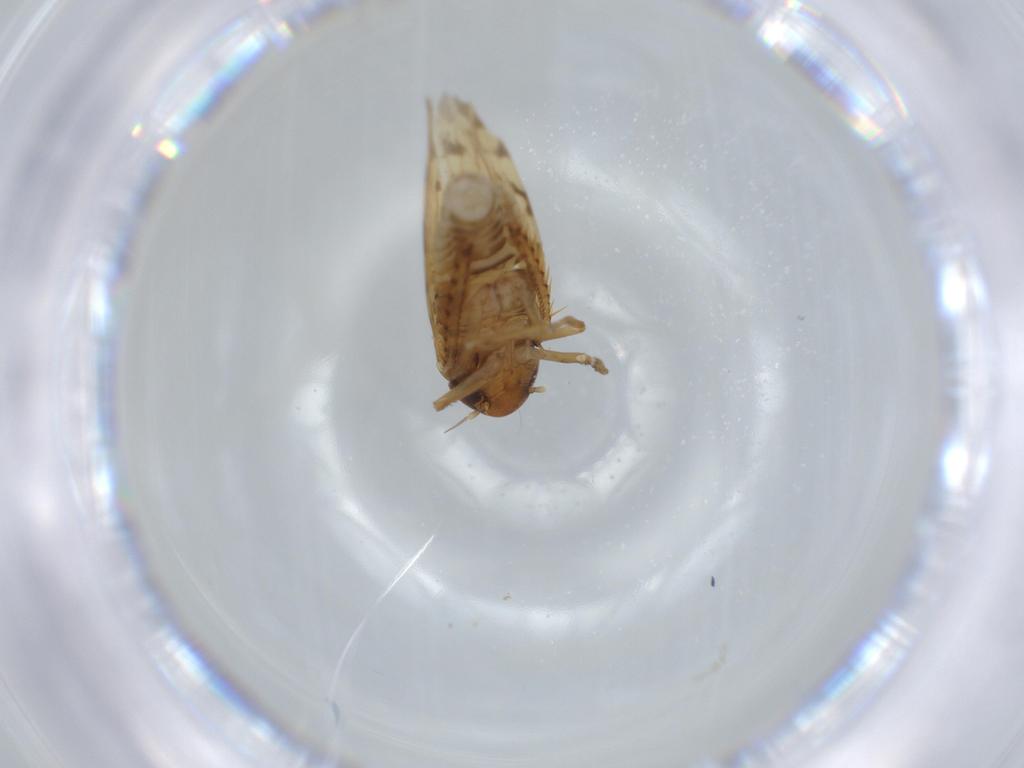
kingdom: Animalia
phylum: Arthropoda
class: Insecta
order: Hemiptera
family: Cicadellidae
